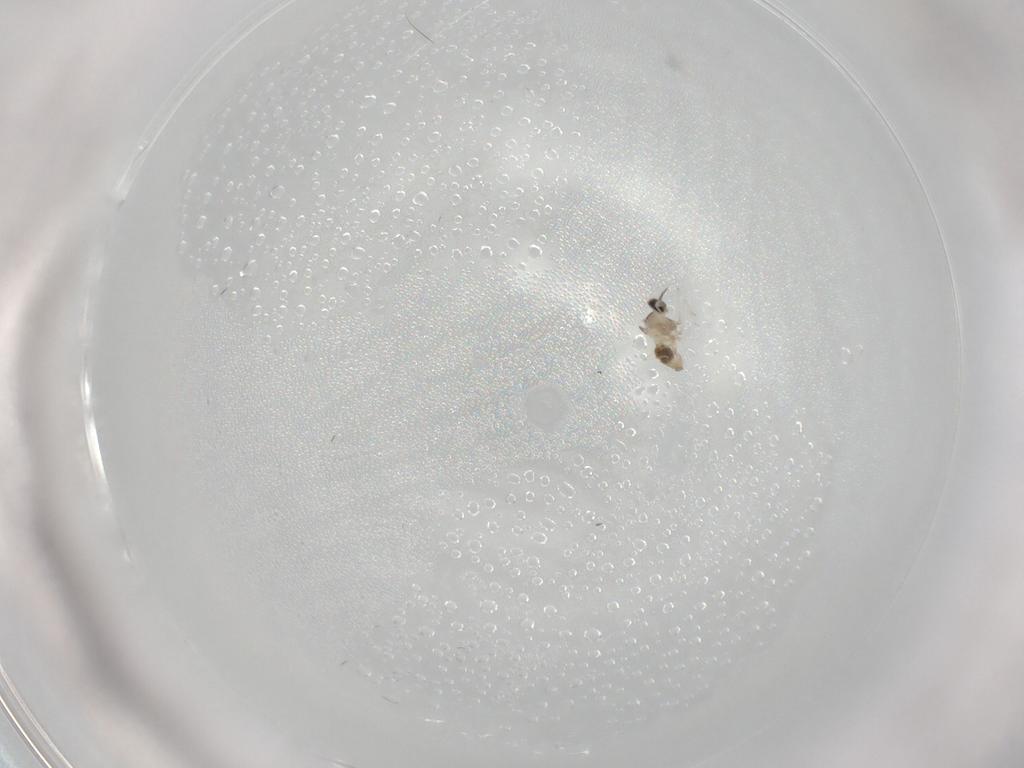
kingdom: Animalia
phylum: Arthropoda
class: Insecta
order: Diptera
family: Cecidomyiidae
